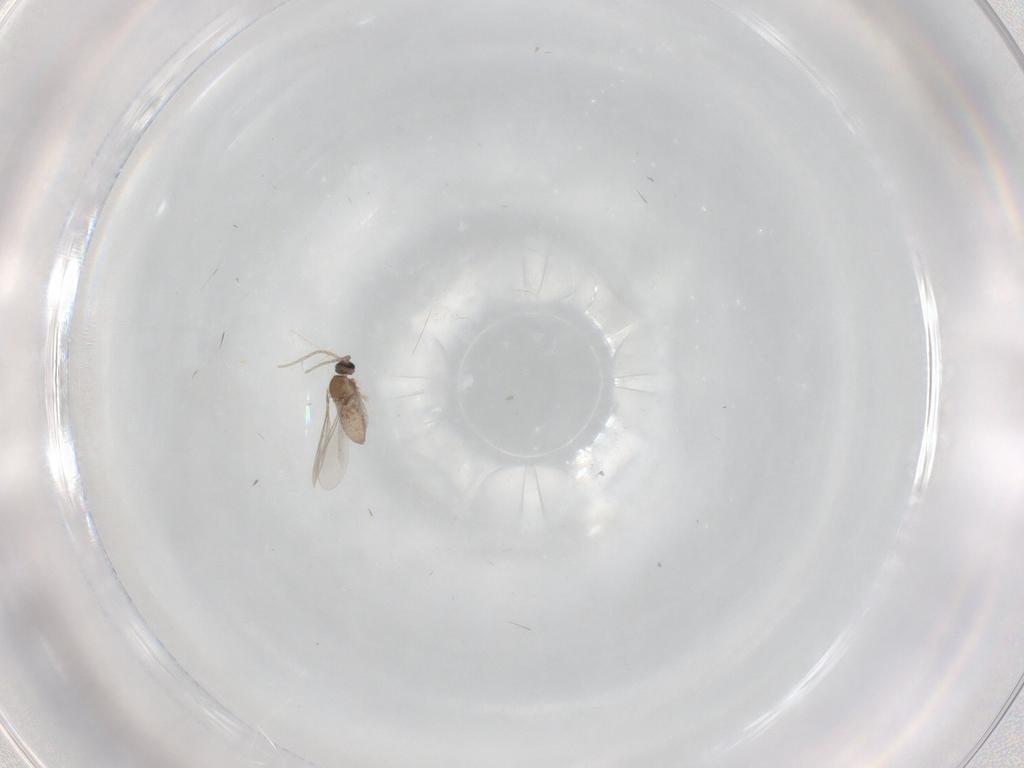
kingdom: Animalia
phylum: Arthropoda
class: Insecta
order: Diptera
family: Cecidomyiidae
